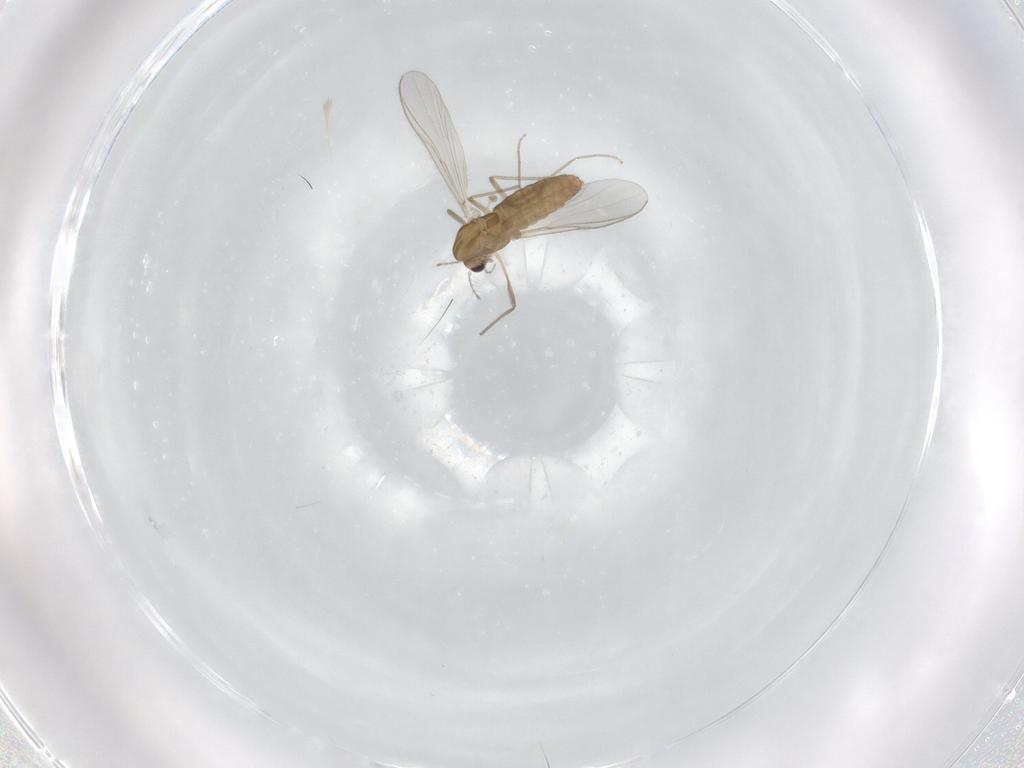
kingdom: Animalia
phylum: Arthropoda
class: Insecta
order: Diptera
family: Chironomidae
